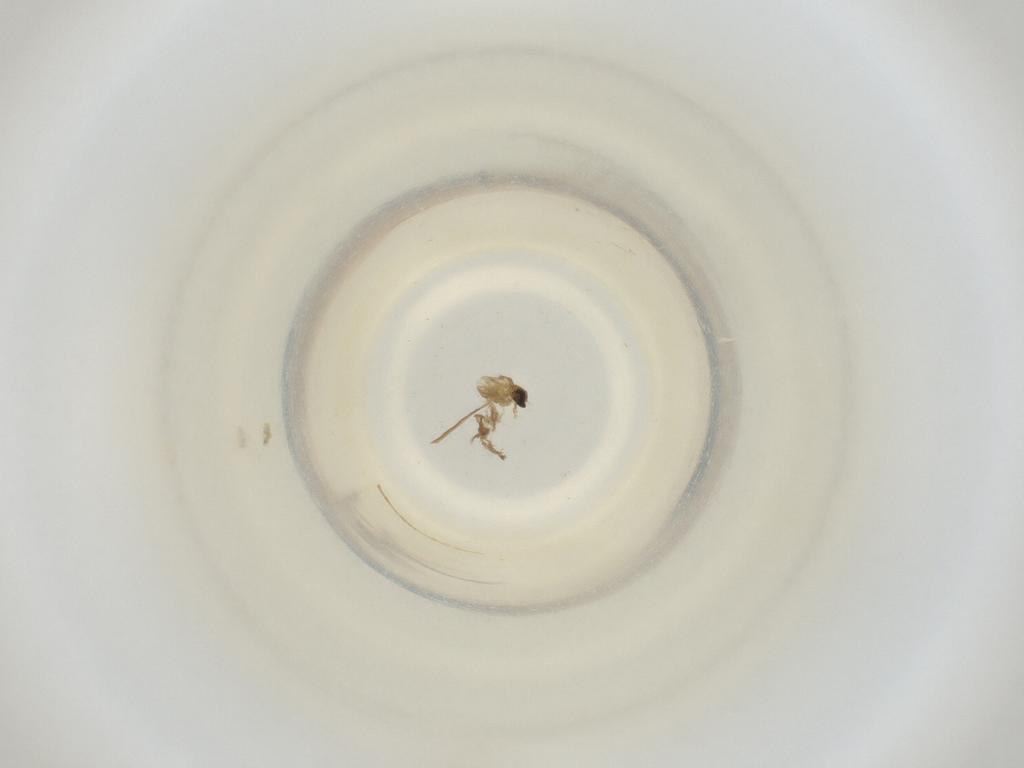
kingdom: Animalia
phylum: Arthropoda
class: Insecta
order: Diptera
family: Cecidomyiidae
